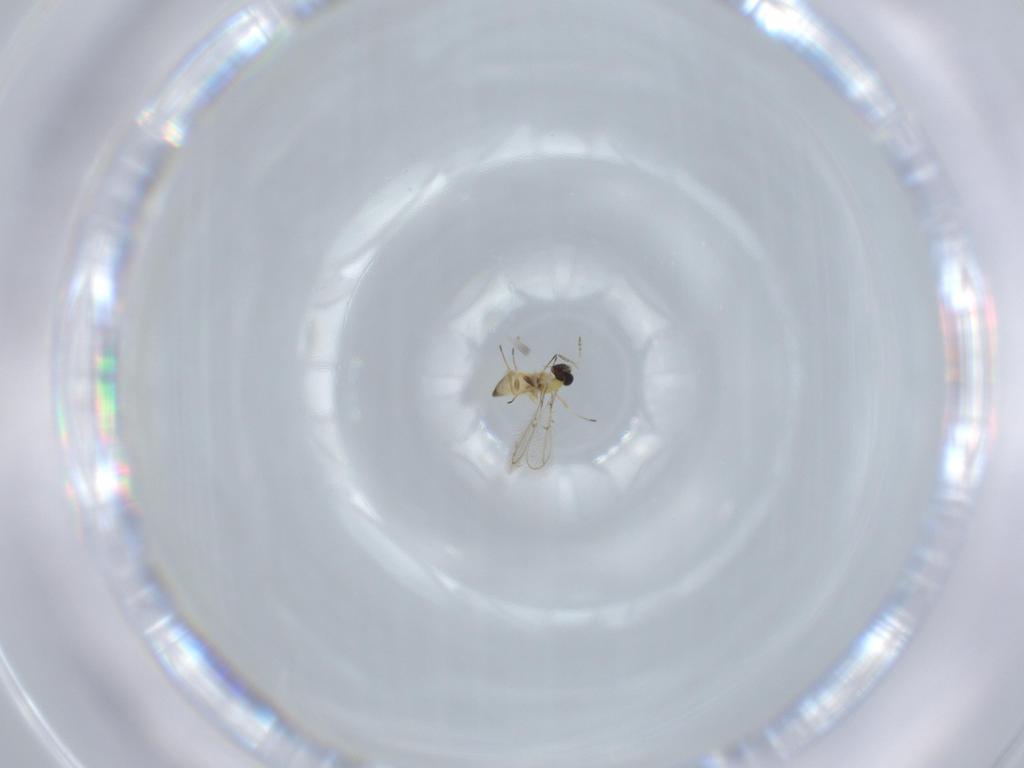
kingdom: Animalia
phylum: Arthropoda
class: Insecta
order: Hymenoptera
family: Trichogrammatidae
